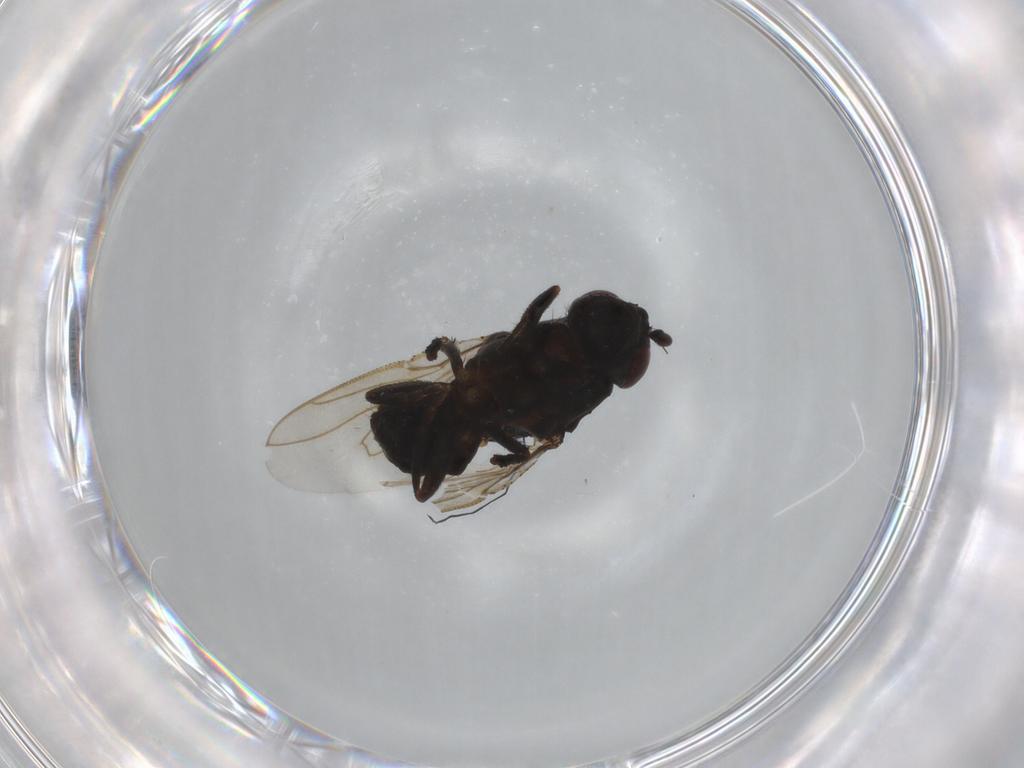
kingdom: Animalia
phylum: Arthropoda
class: Insecta
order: Diptera
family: Sphaeroceridae
